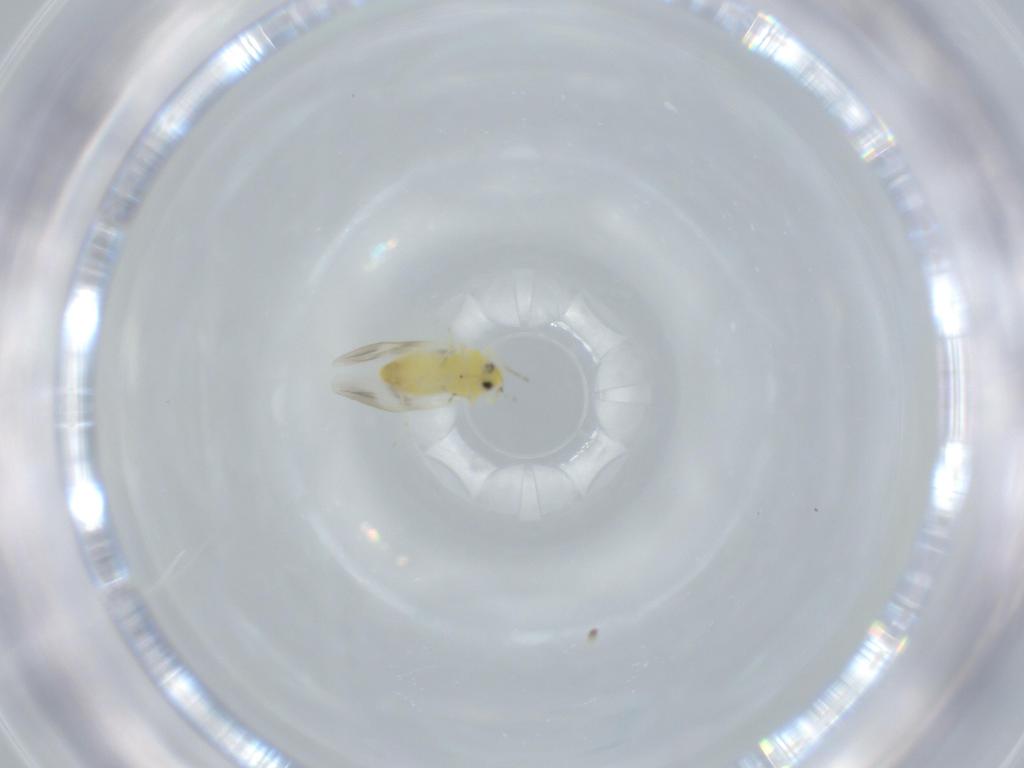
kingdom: Animalia
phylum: Arthropoda
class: Insecta
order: Hemiptera
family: Aleyrodidae
